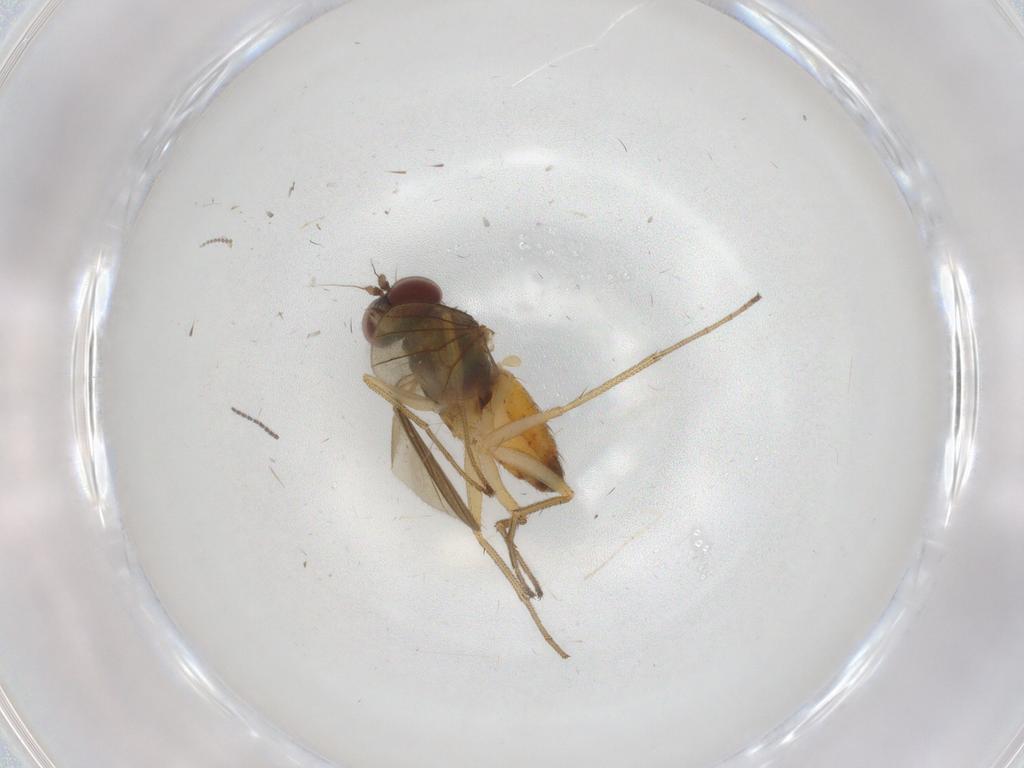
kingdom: Animalia
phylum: Arthropoda
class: Insecta
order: Diptera
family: Dolichopodidae
